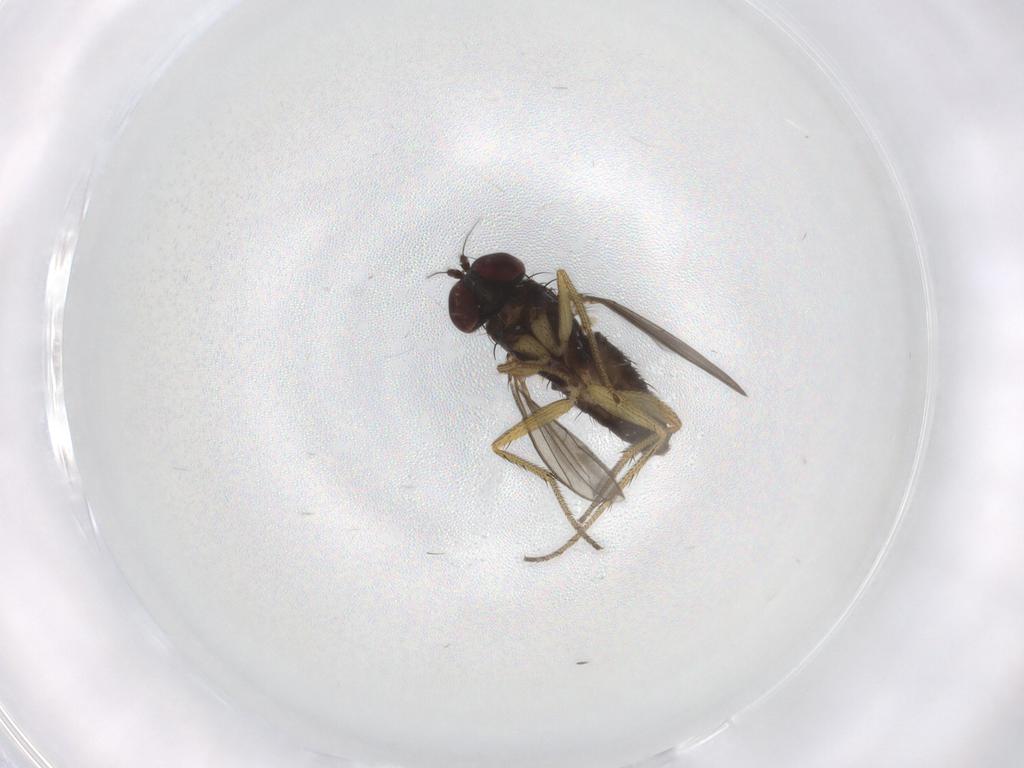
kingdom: Animalia
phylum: Arthropoda
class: Insecta
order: Diptera
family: Dolichopodidae
